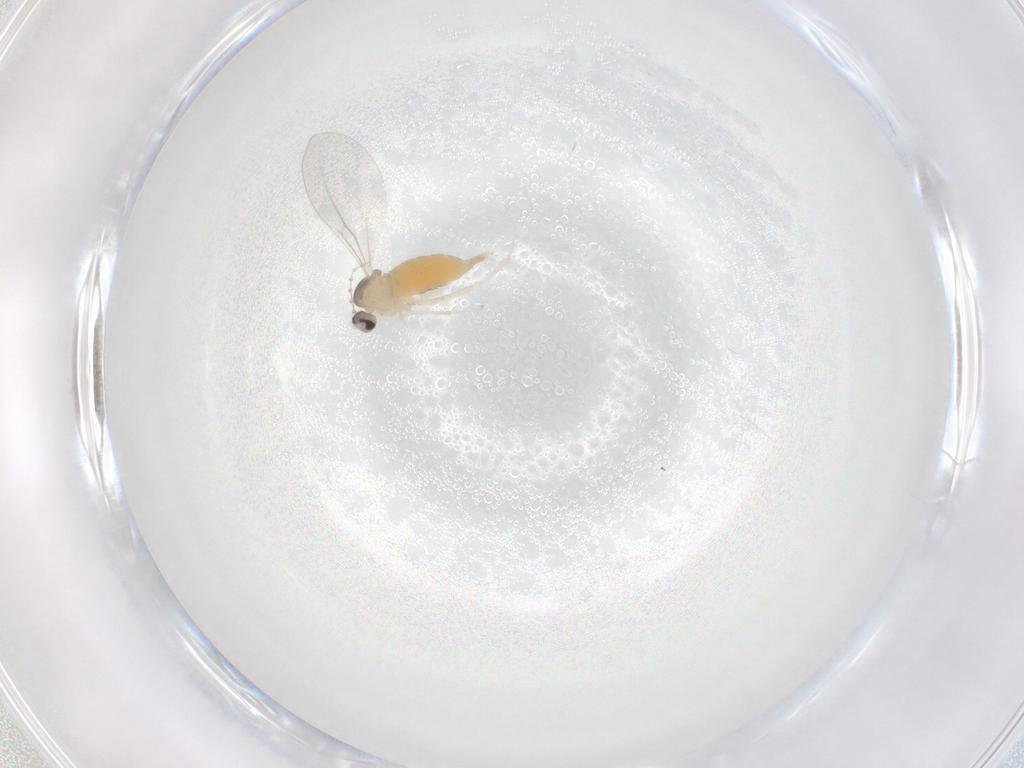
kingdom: Animalia
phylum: Arthropoda
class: Insecta
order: Diptera
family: Cecidomyiidae
